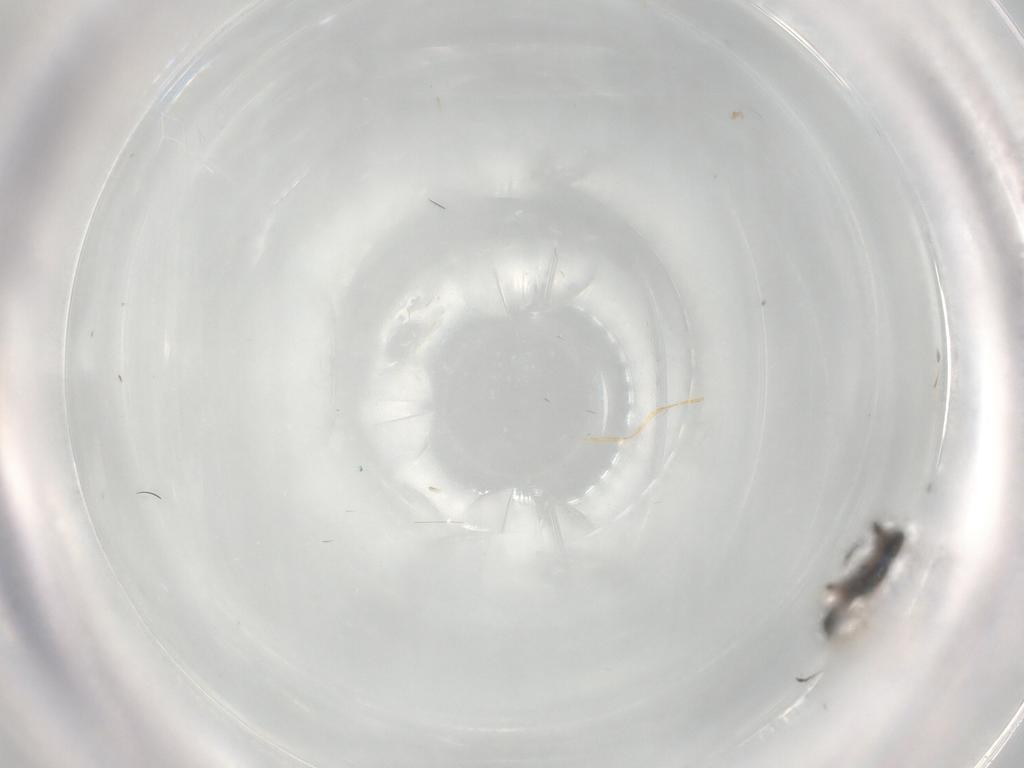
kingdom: Animalia
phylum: Arthropoda
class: Insecta
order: Hymenoptera
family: Scelionidae
